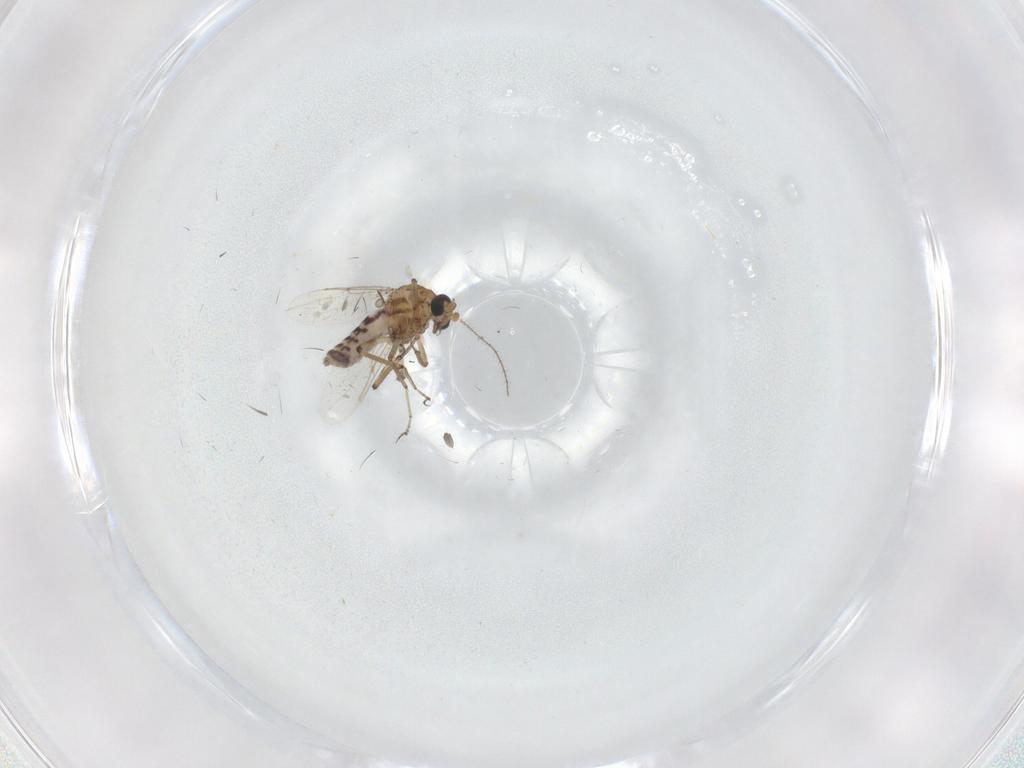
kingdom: Animalia
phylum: Arthropoda
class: Insecta
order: Diptera
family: Ceratopogonidae
